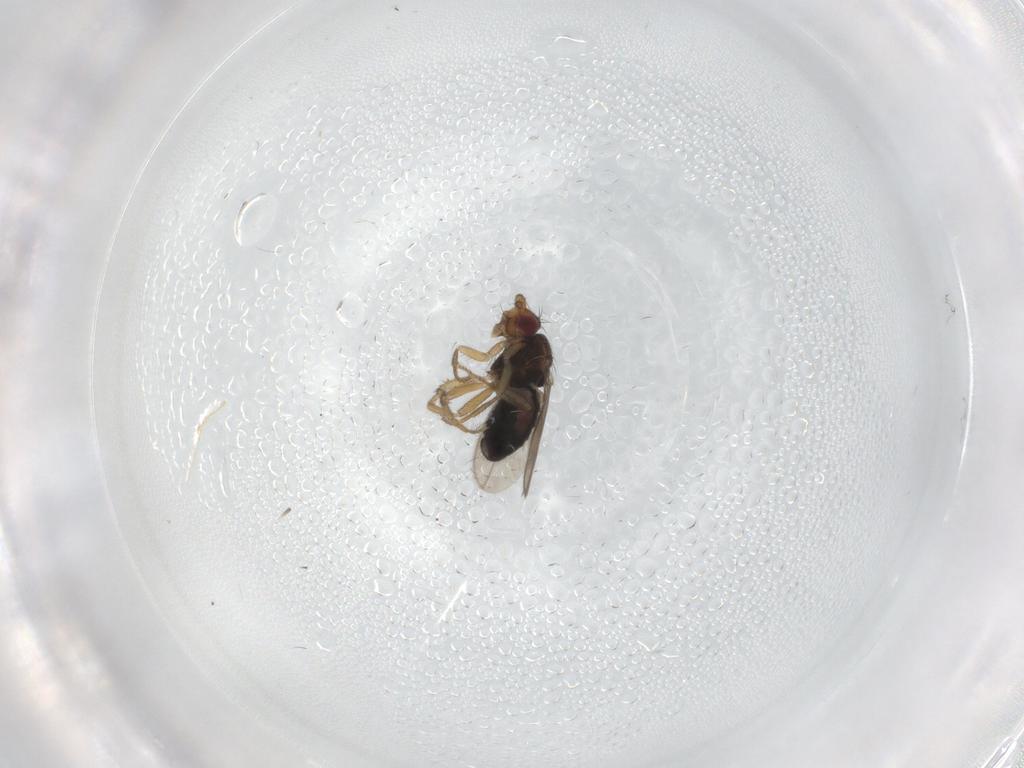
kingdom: Animalia
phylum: Arthropoda
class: Insecta
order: Diptera
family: Sphaeroceridae
